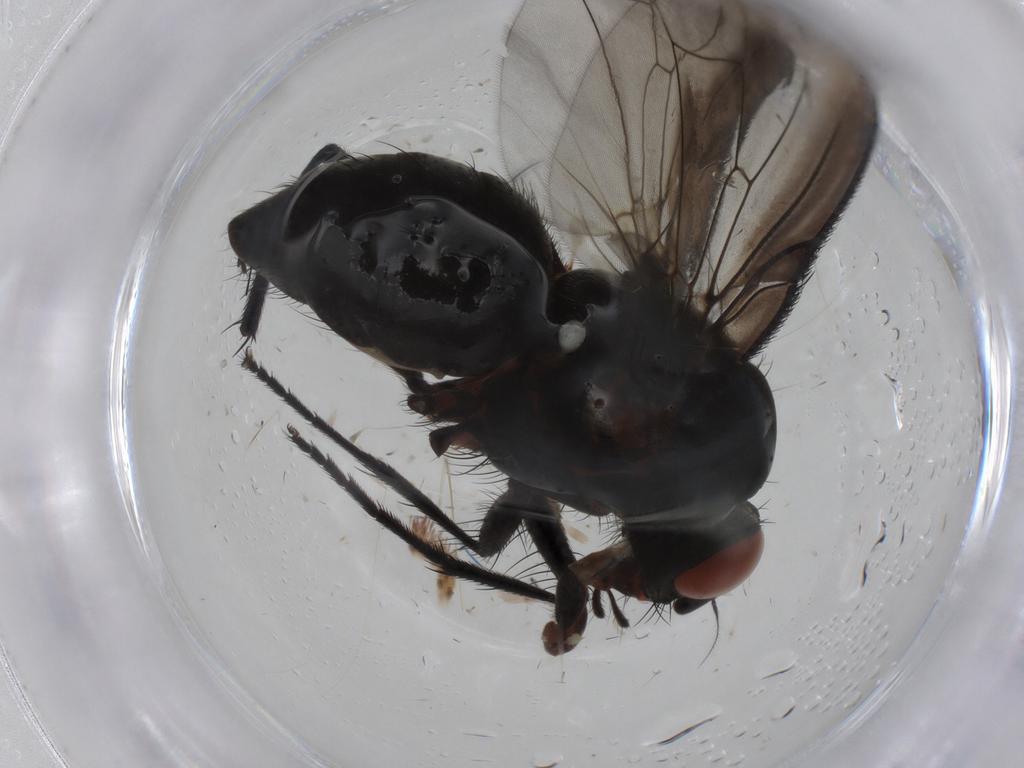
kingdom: Animalia
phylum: Arthropoda
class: Insecta
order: Diptera
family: Anthomyiidae
